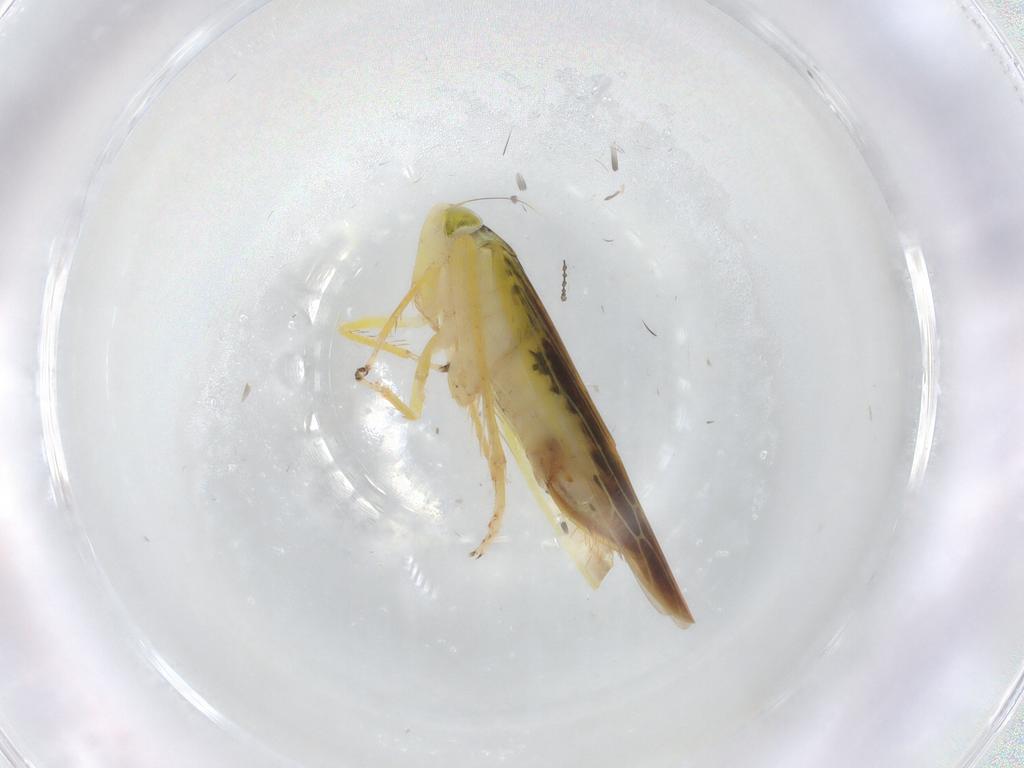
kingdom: Animalia
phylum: Arthropoda
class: Insecta
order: Hemiptera
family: Cicadellidae
